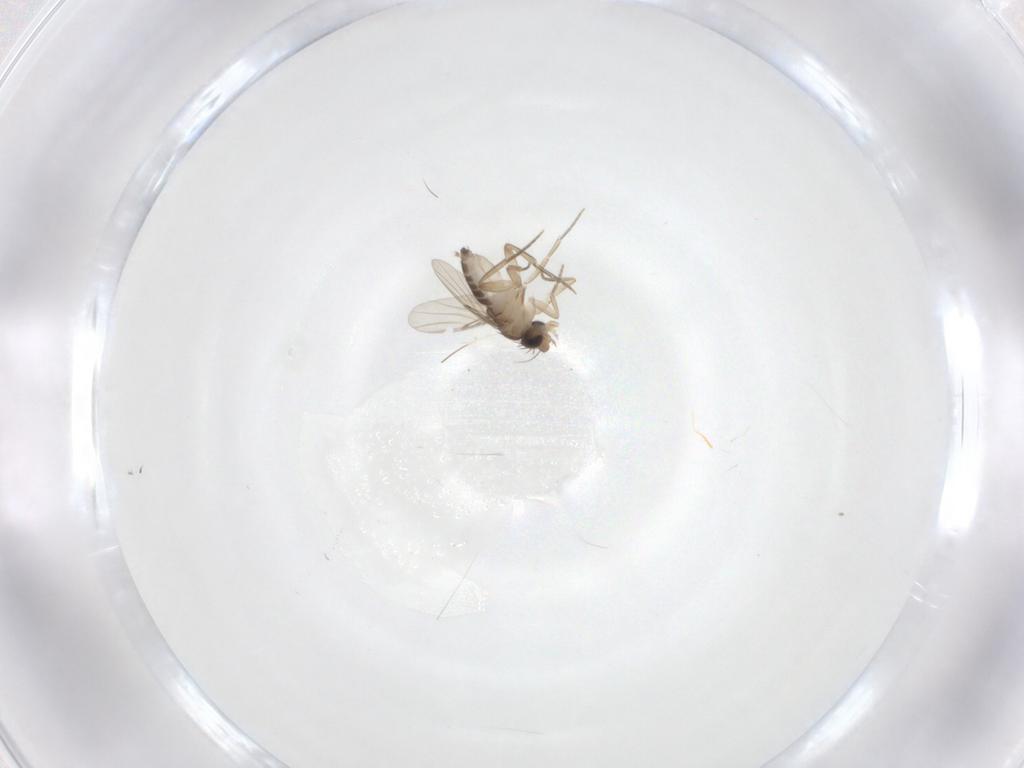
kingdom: Animalia
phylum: Arthropoda
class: Insecta
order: Diptera
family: Phoridae
